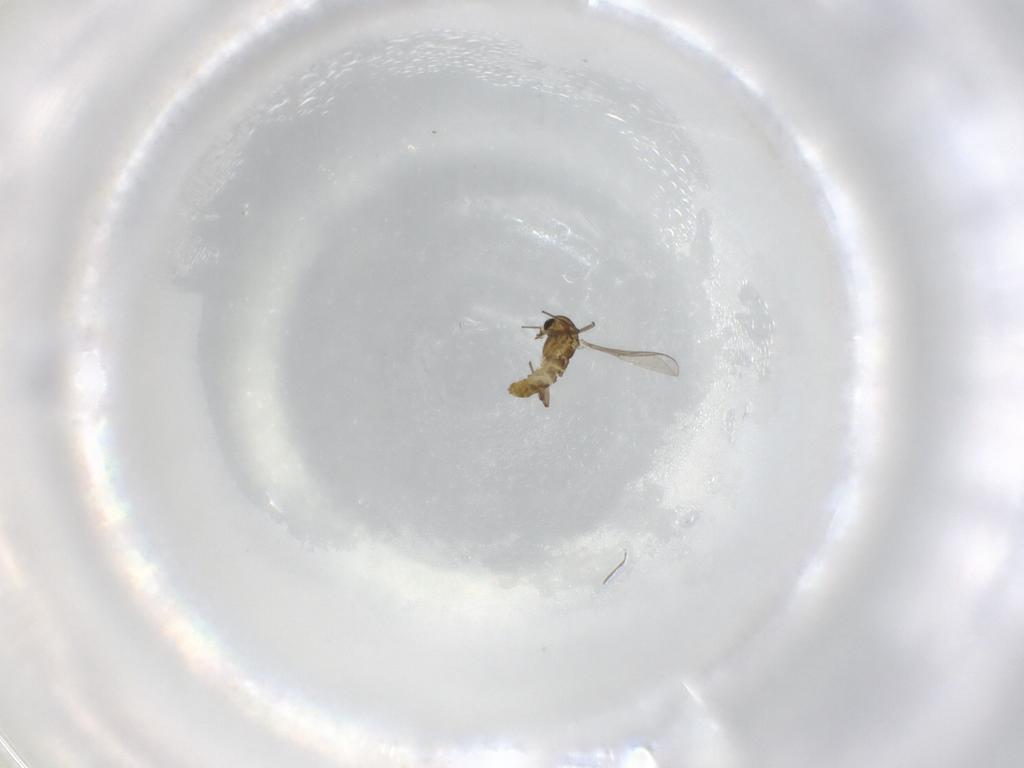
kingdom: Animalia
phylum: Arthropoda
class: Insecta
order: Diptera
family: Chironomidae
